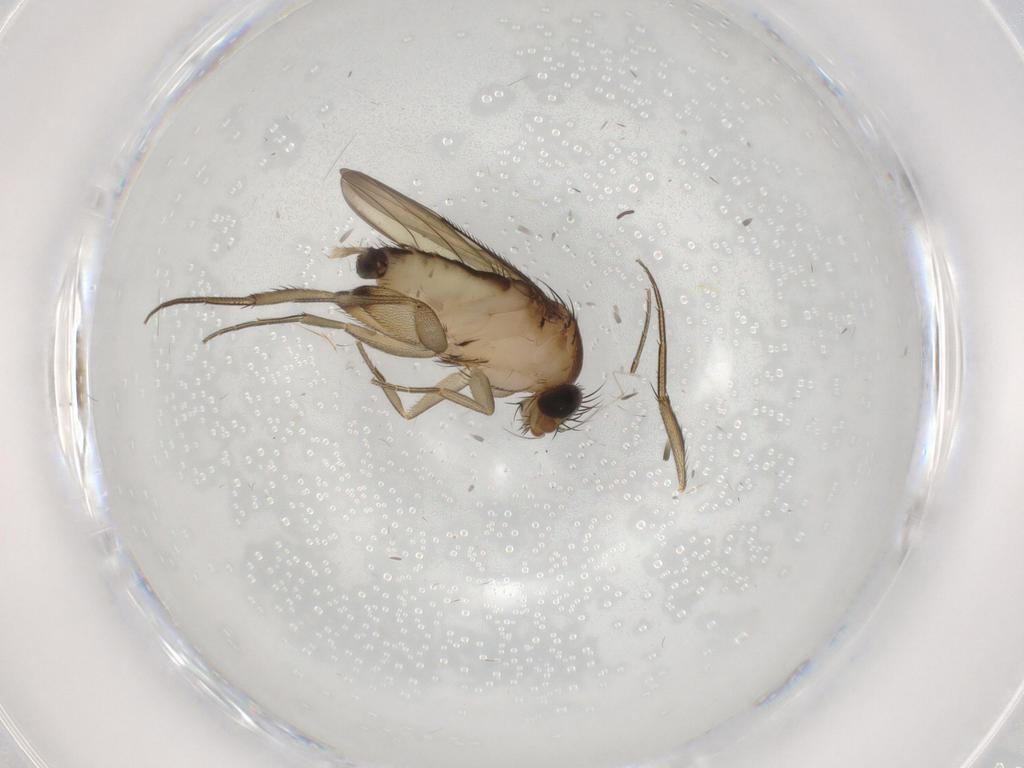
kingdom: Animalia
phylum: Arthropoda
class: Insecta
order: Diptera
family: Phoridae
